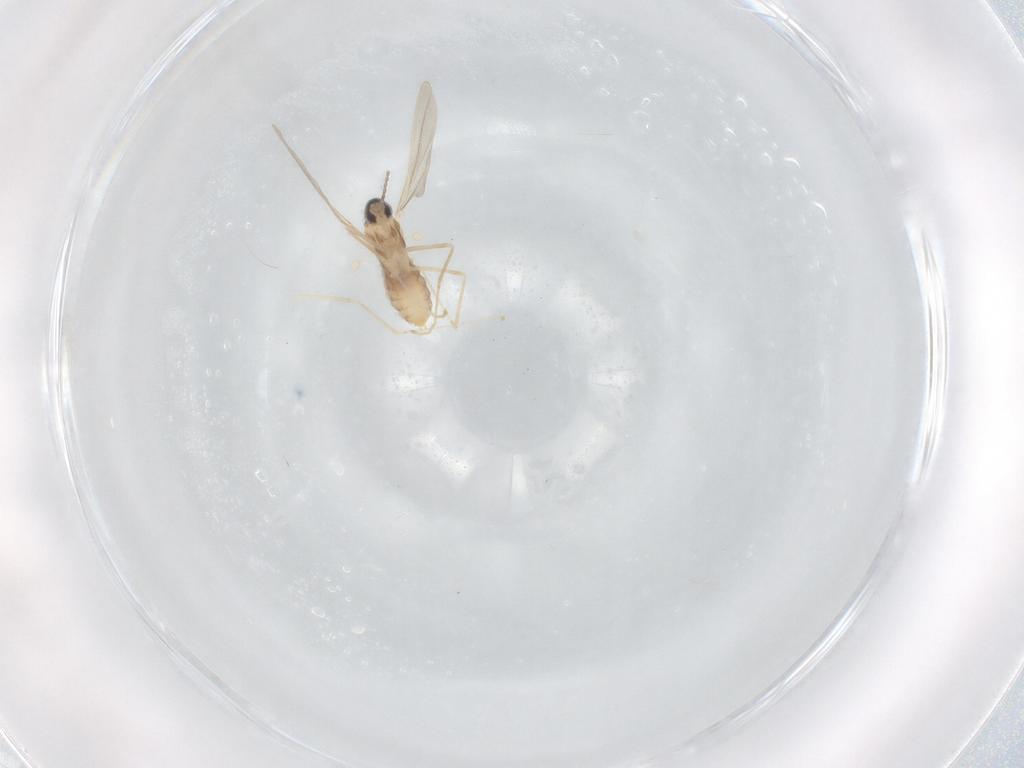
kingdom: Animalia
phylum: Arthropoda
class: Insecta
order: Diptera
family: Cecidomyiidae
